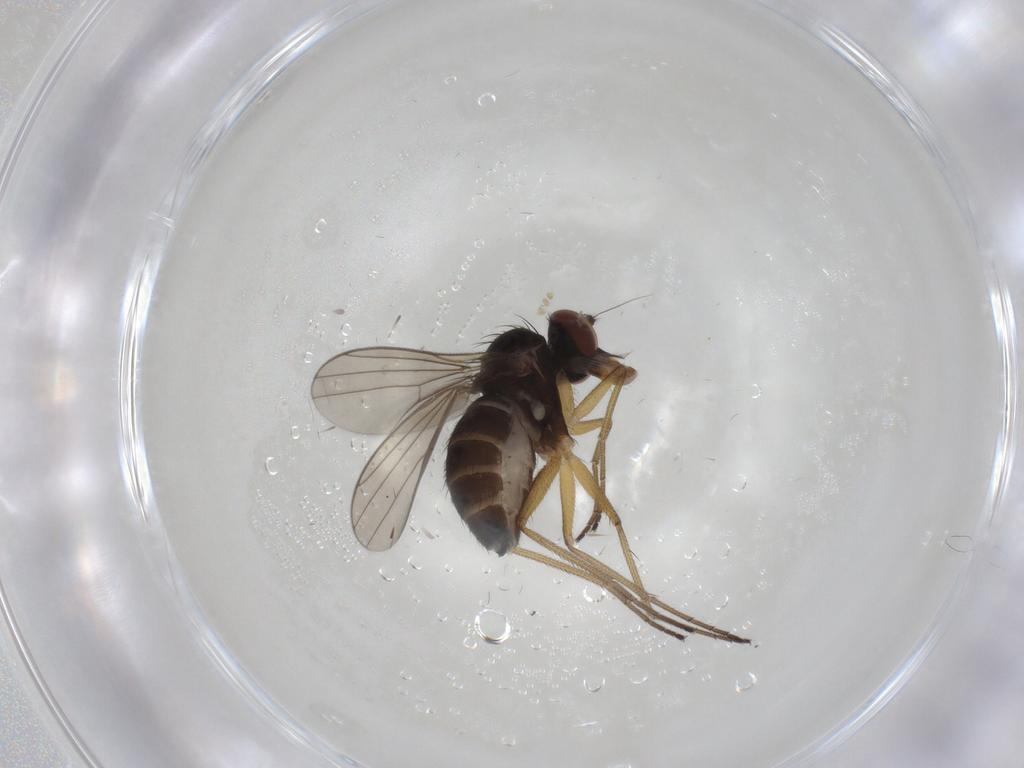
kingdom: Animalia
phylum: Arthropoda
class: Insecta
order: Diptera
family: Dolichopodidae
